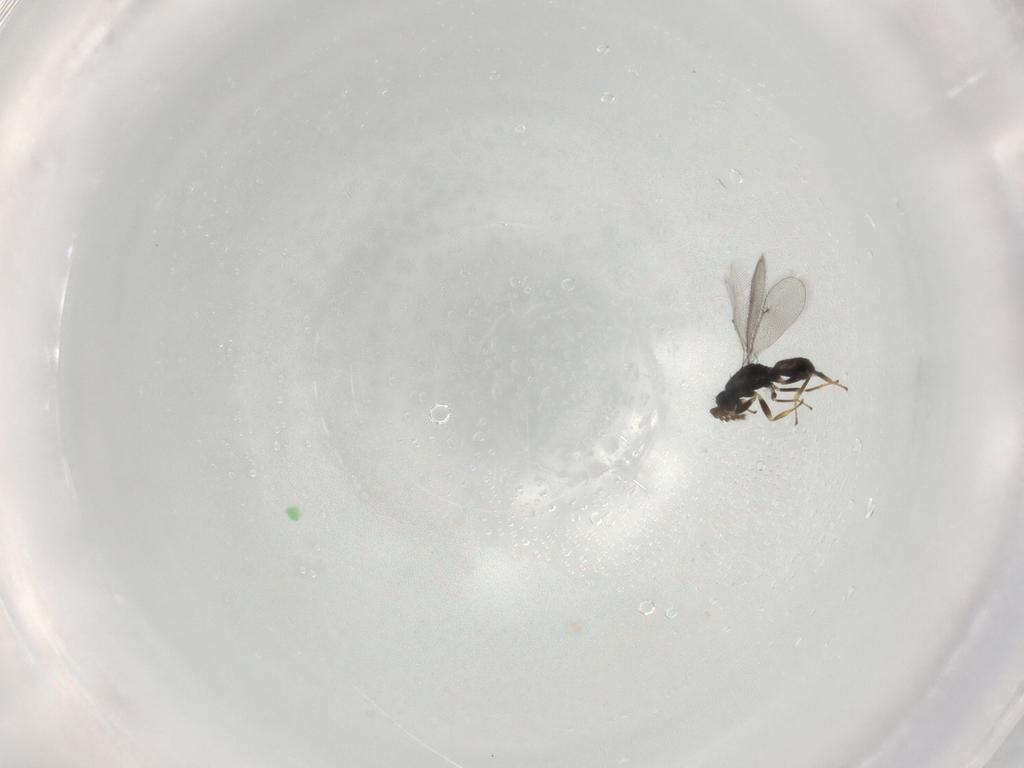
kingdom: Animalia
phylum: Arthropoda
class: Insecta
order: Hymenoptera
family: Eulophidae
